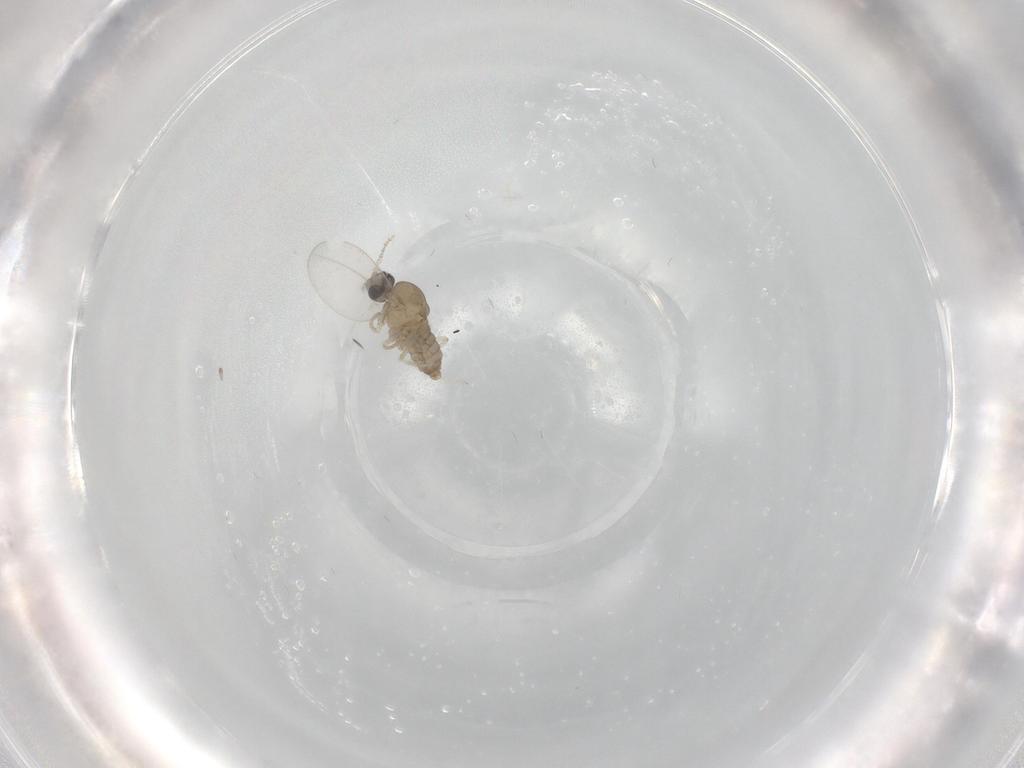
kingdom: Animalia
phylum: Arthropoda
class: Insecta
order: Diptera
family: Cecidomyiidae
